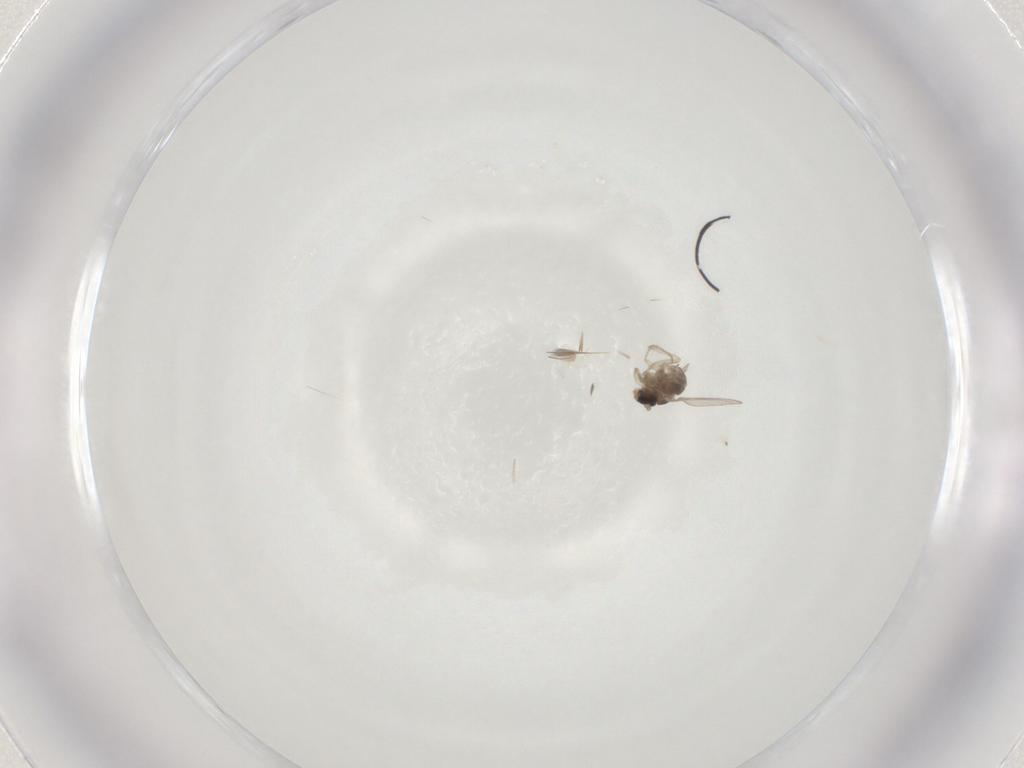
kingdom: Animalia
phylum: Arthropoda
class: Insecta
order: Diptera
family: Cecidomyiidae
